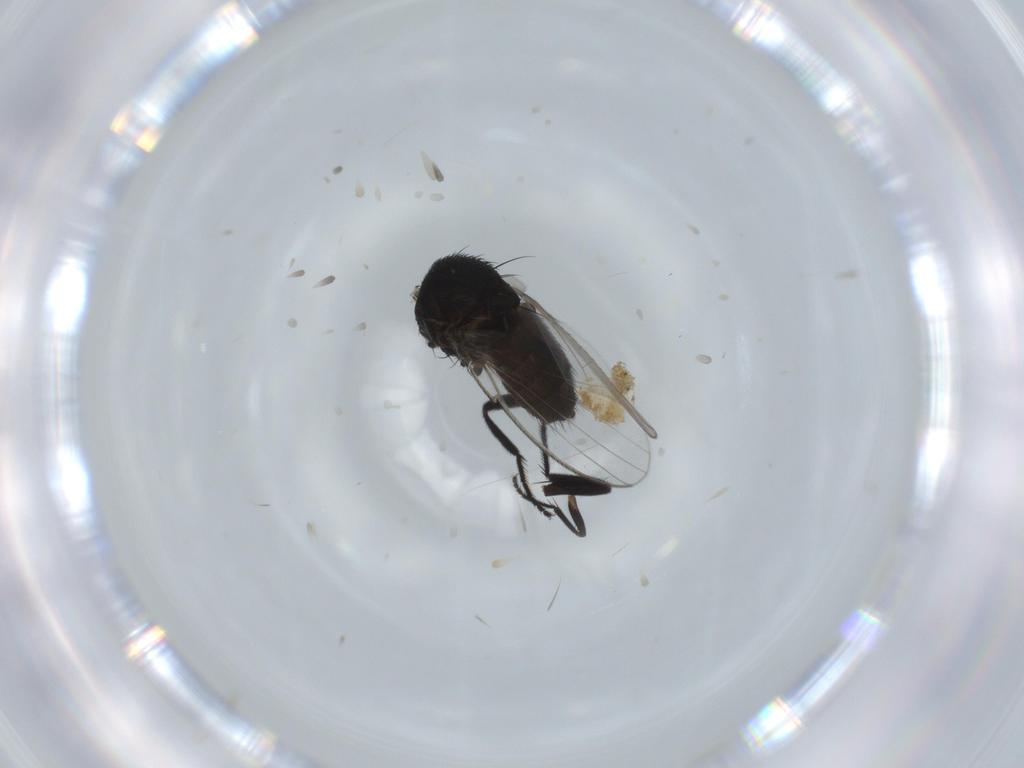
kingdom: Animalia
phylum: Arthropoda
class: Insecta
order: Diptera
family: Milichiidae
